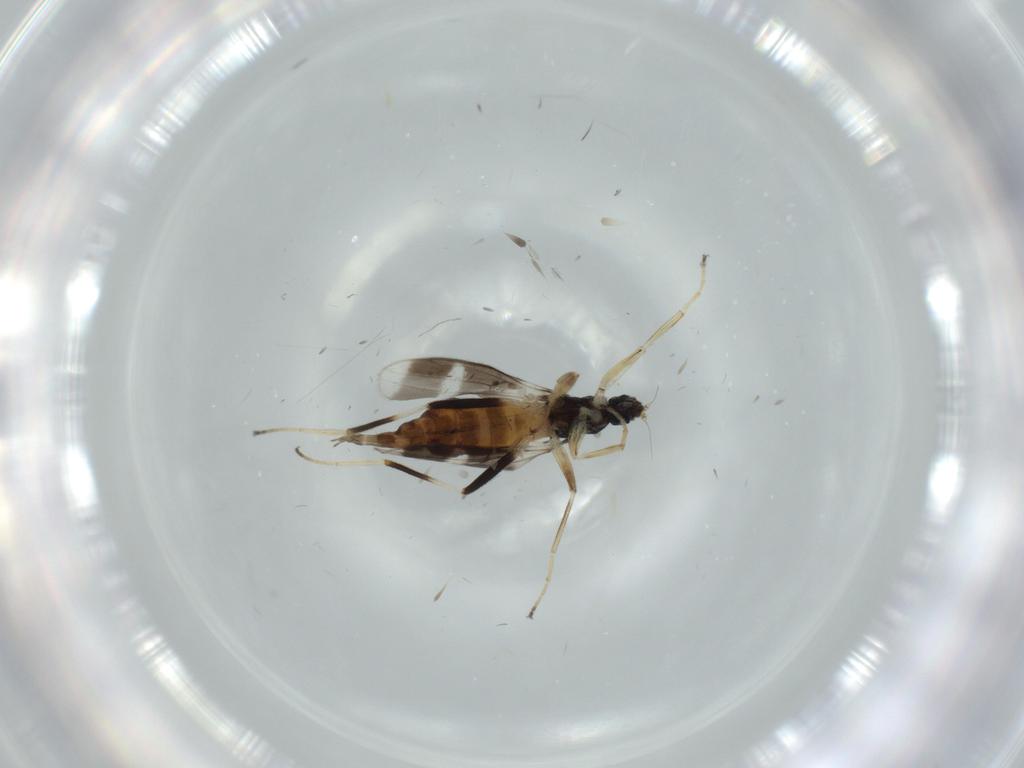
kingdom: Animalia
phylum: Arthropoda
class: Insecta
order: Diptera
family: Hybotidae
